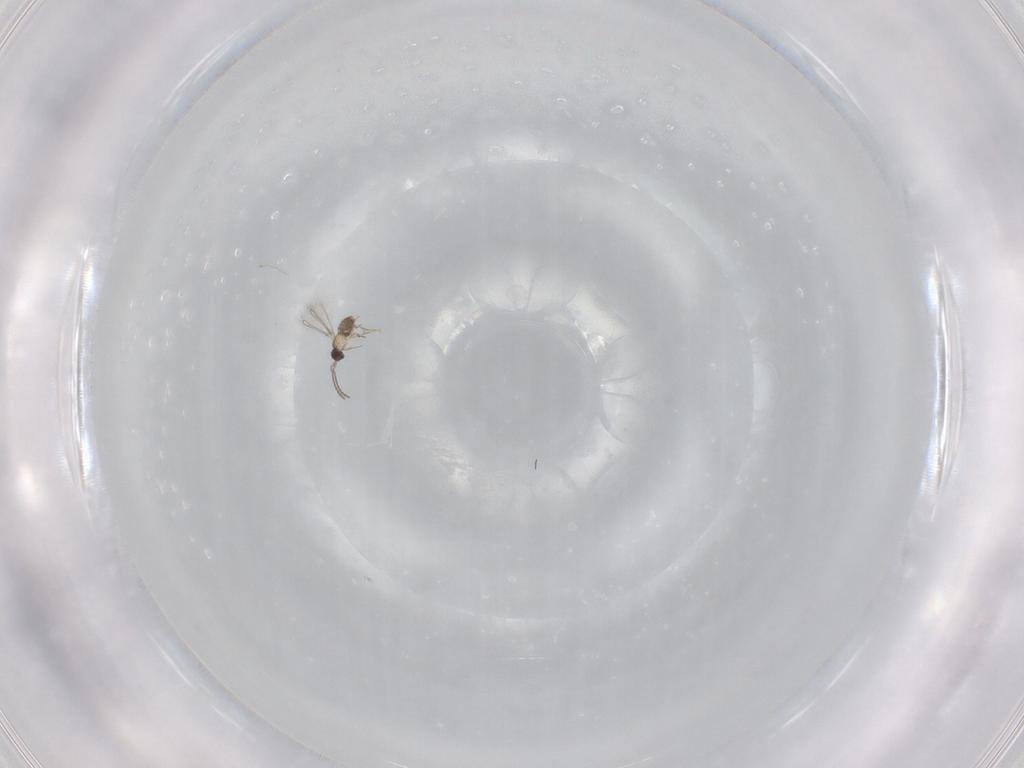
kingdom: Animalia
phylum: Arthropoda
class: Insecta
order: Hymenoptera
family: Mymaridae
